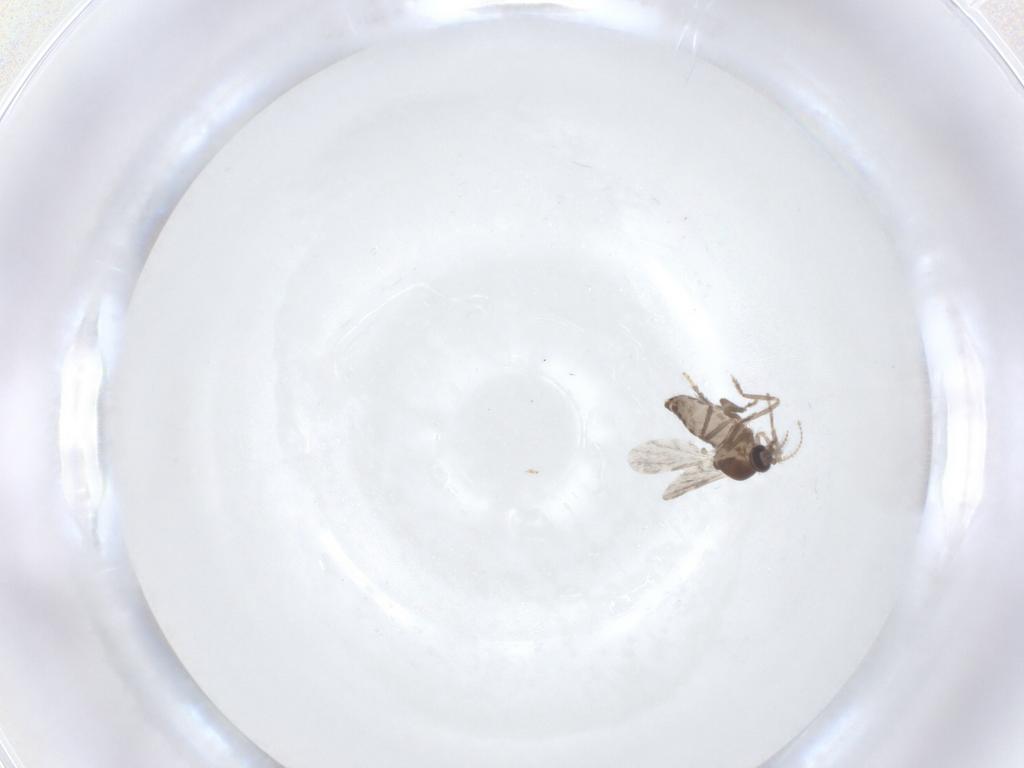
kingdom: Animalia
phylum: Arthropoda
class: Insecta
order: Diptera
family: Ceratopogonidae
